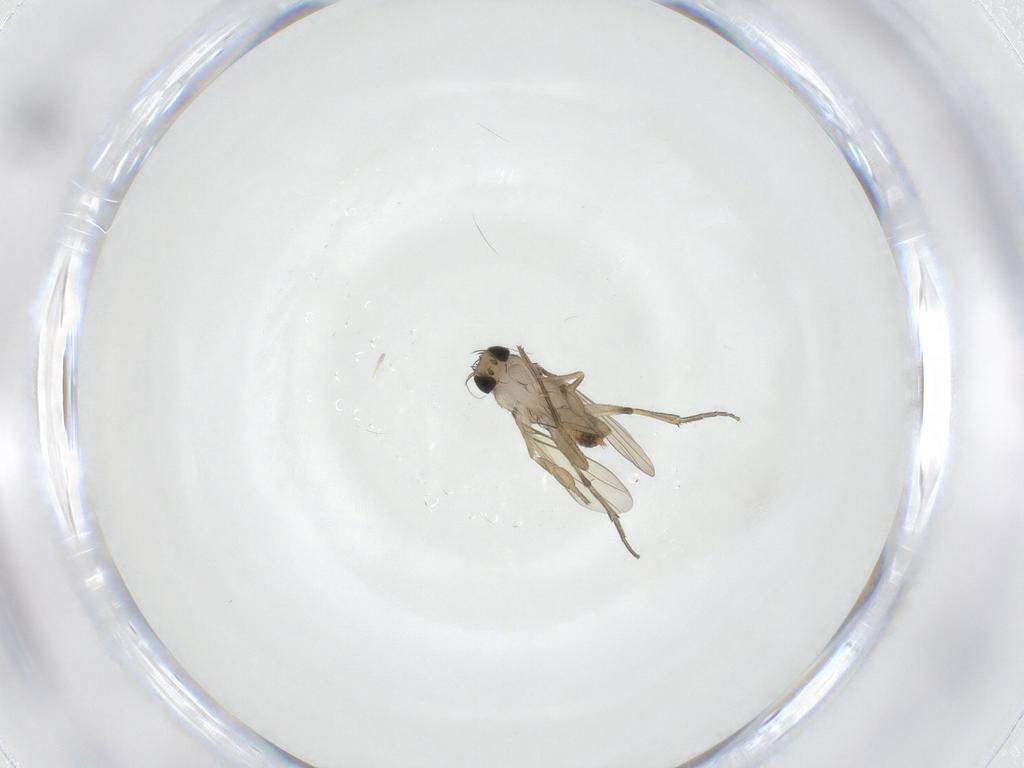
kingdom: Animalia
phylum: Arthropoda
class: Insecta
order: Diptera
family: Phoridae
